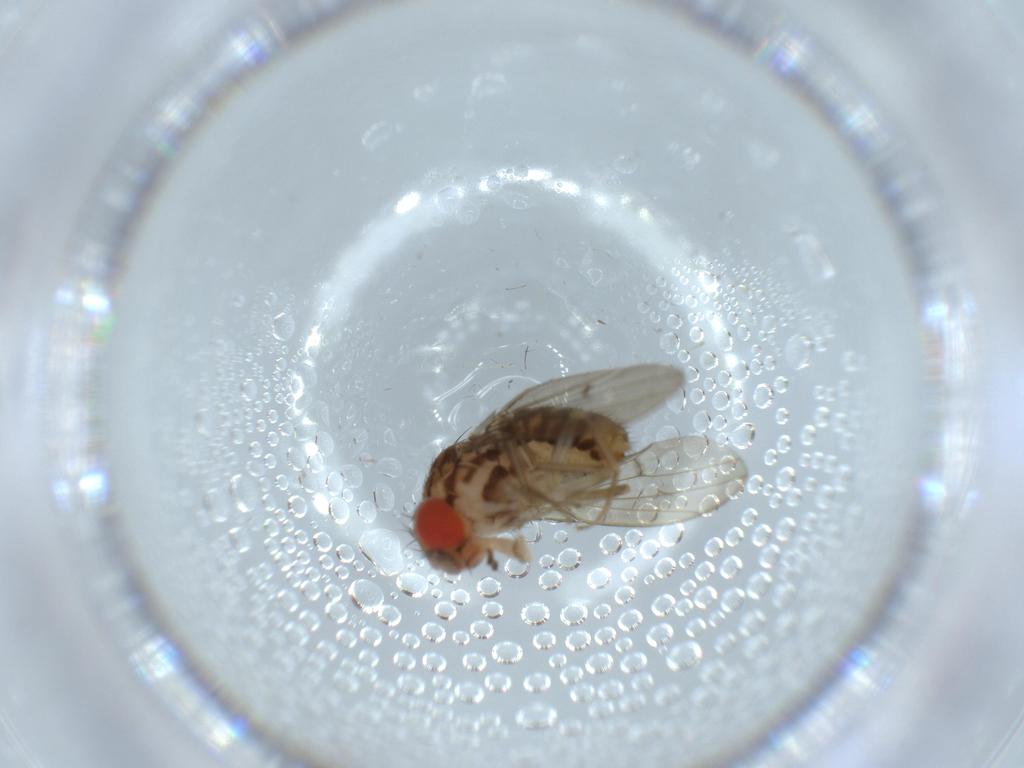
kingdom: Animalia
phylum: Arthropoda
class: Insecta
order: Diptera
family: Drosophilidae
